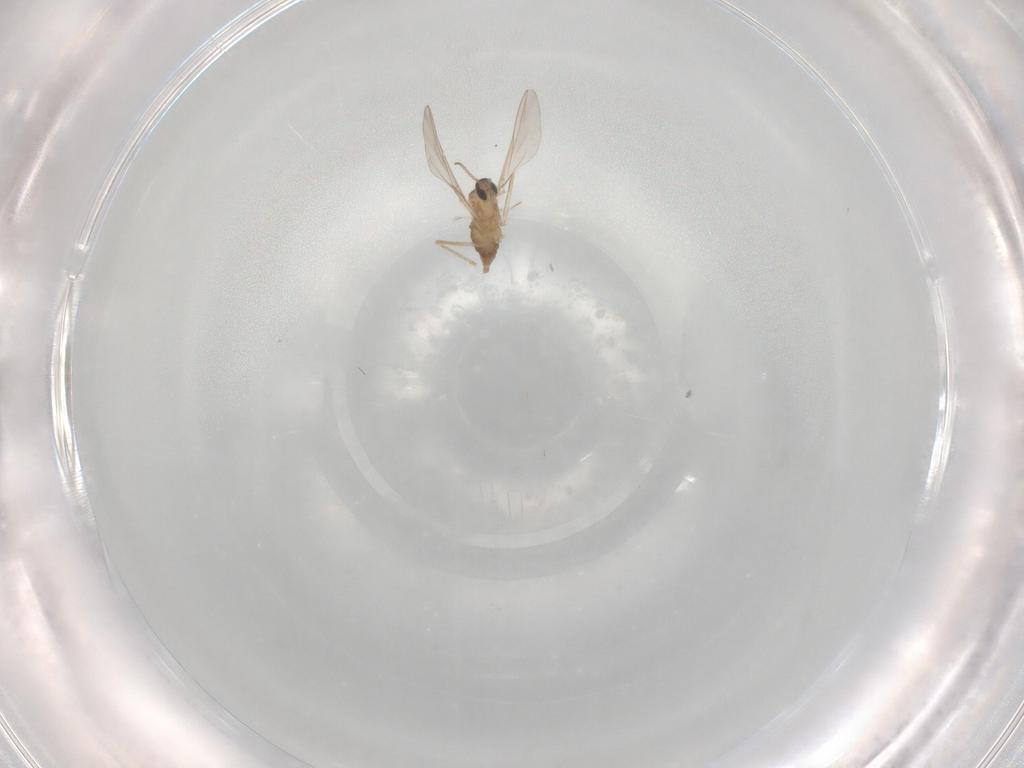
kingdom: Animalia
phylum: Arthropoda
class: Insecta
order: Diptera
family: Cecidomyiidae
